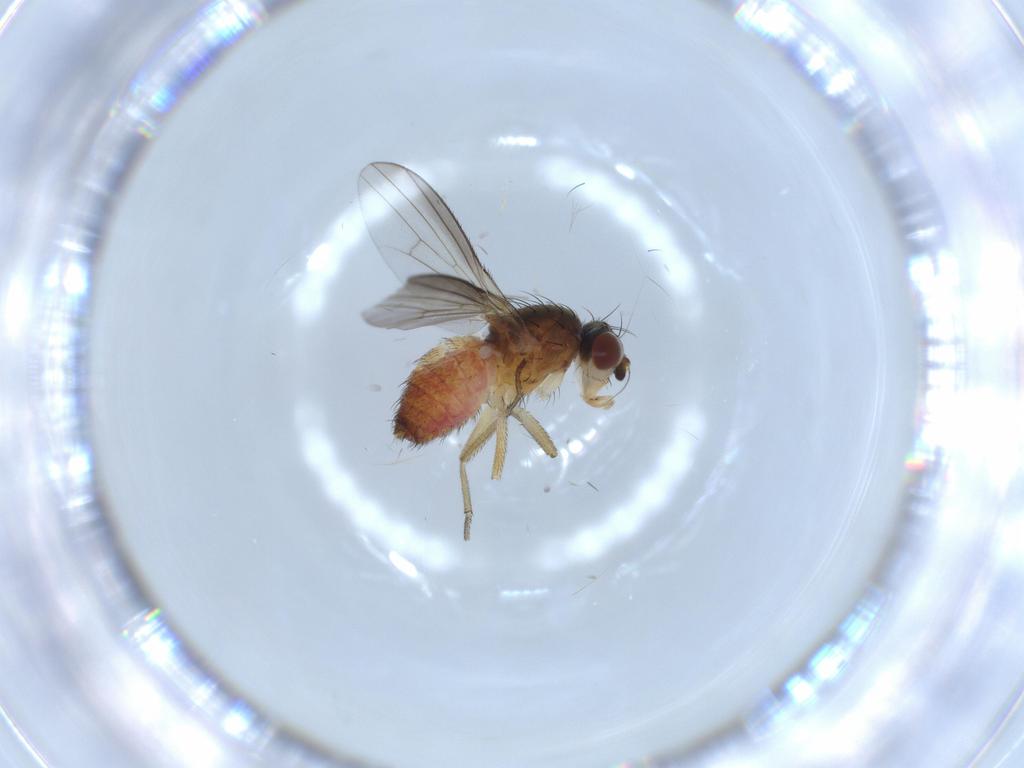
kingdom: Animalia
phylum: Arthropoda
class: Insecta
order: Diptera
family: Heleomyzidae
